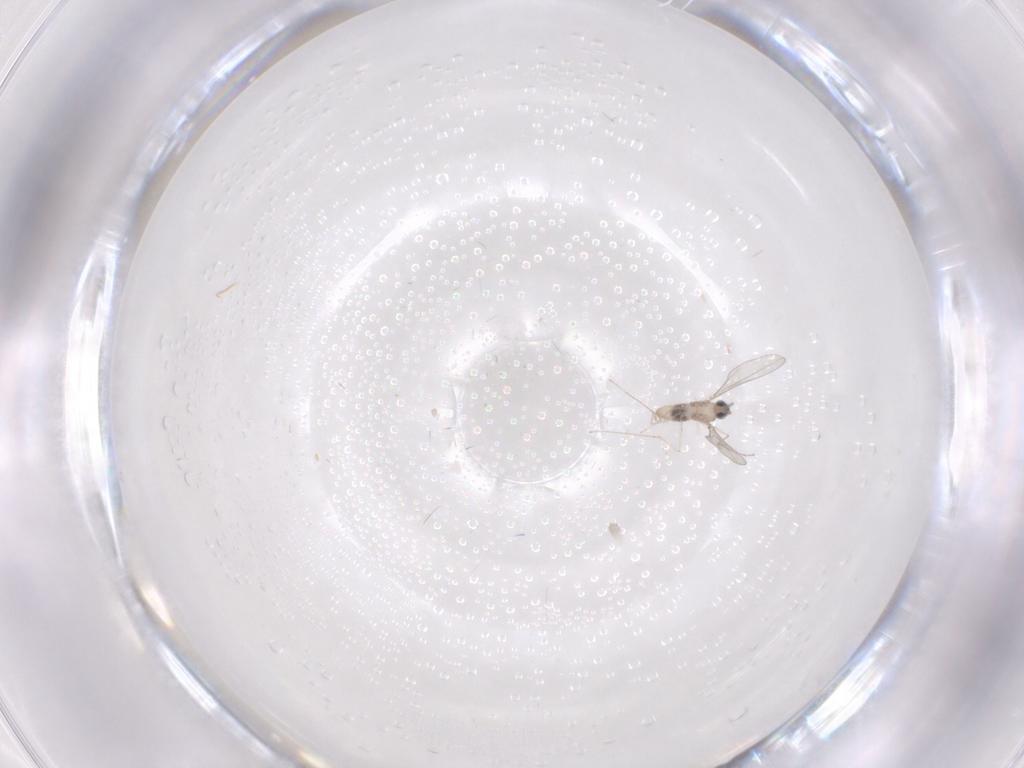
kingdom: Animalia
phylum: Arthropoda
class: Insecta
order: Diptera
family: Cecidomyiidae
